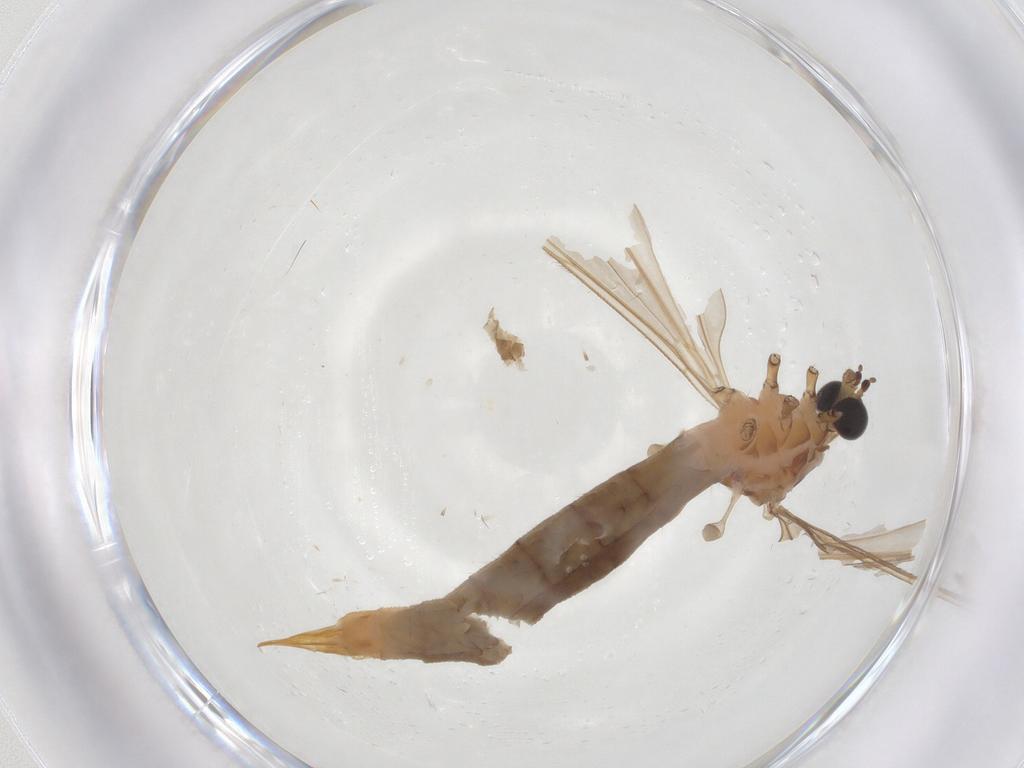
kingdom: Animalia
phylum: Arthropoda
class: Insecta
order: Diptera
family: Limoniidae
